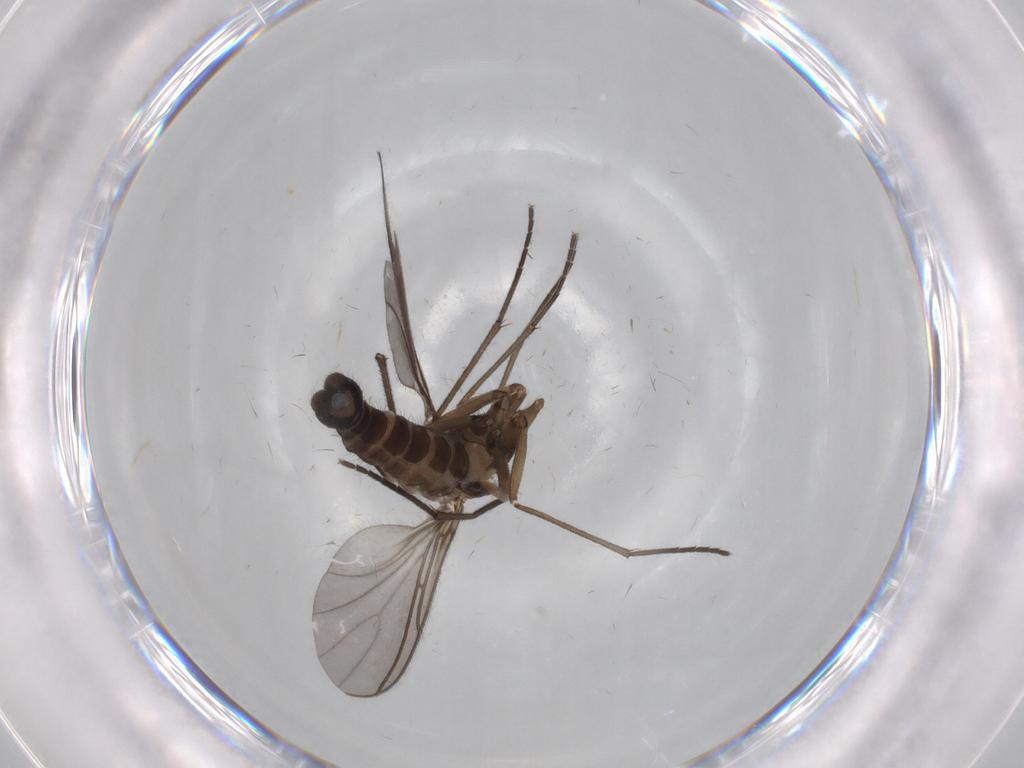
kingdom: Animalia
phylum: Arthropoda
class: Insecta
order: Diptera
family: Sciaridae
